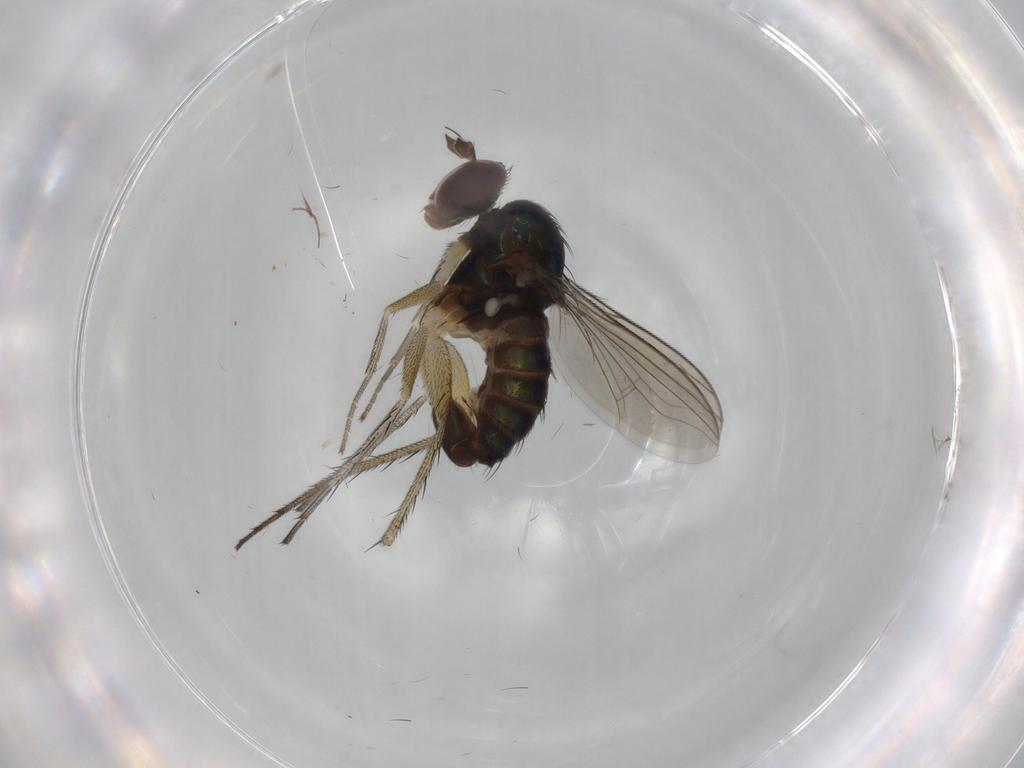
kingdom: Animalia
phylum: Arthropoda
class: Insecta
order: Diptera
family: Dolichopodidae
